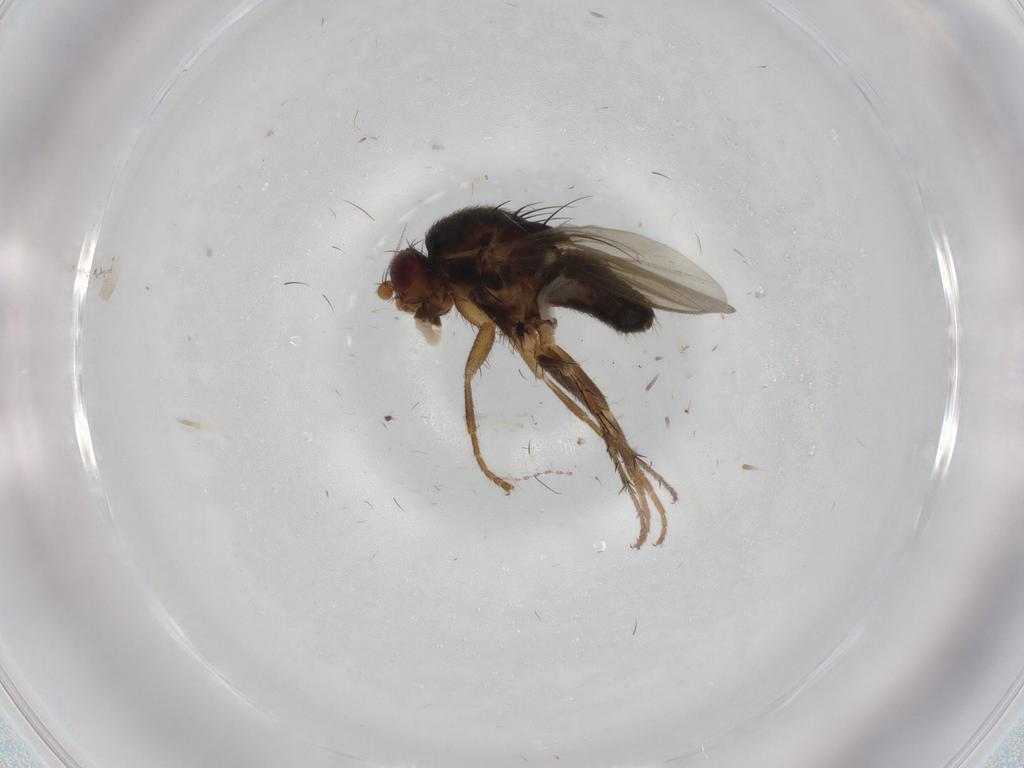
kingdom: Animalia
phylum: Arthropoda
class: Insecta
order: Diptera
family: Sphaeroceridae
